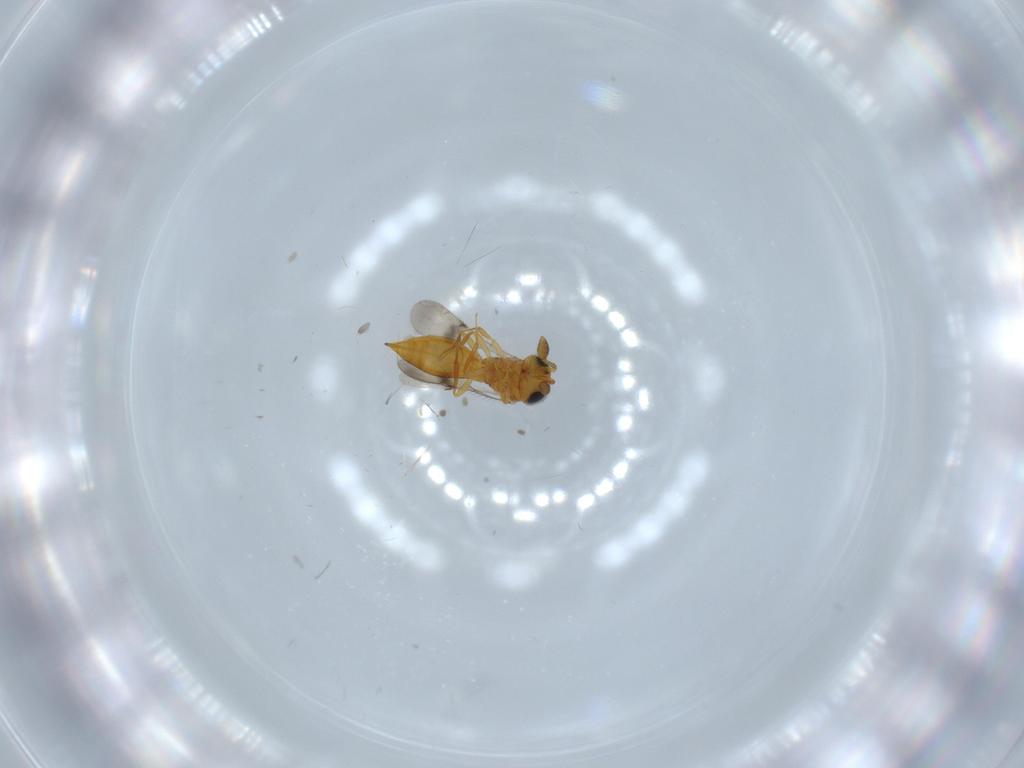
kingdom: Animalia
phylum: Arthropoda
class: Insecta
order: Hymenoptera
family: Scelionidae
